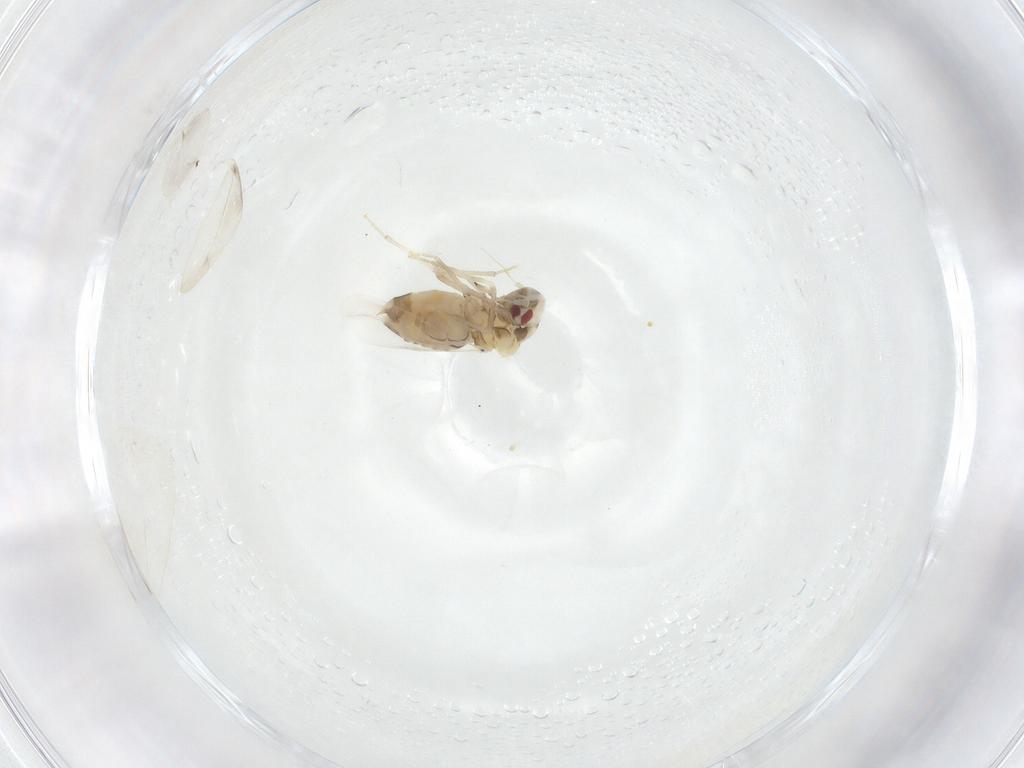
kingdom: Animalia
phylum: Arthropoda
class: Insecta
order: Hemiptera
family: Aleyrodidae
